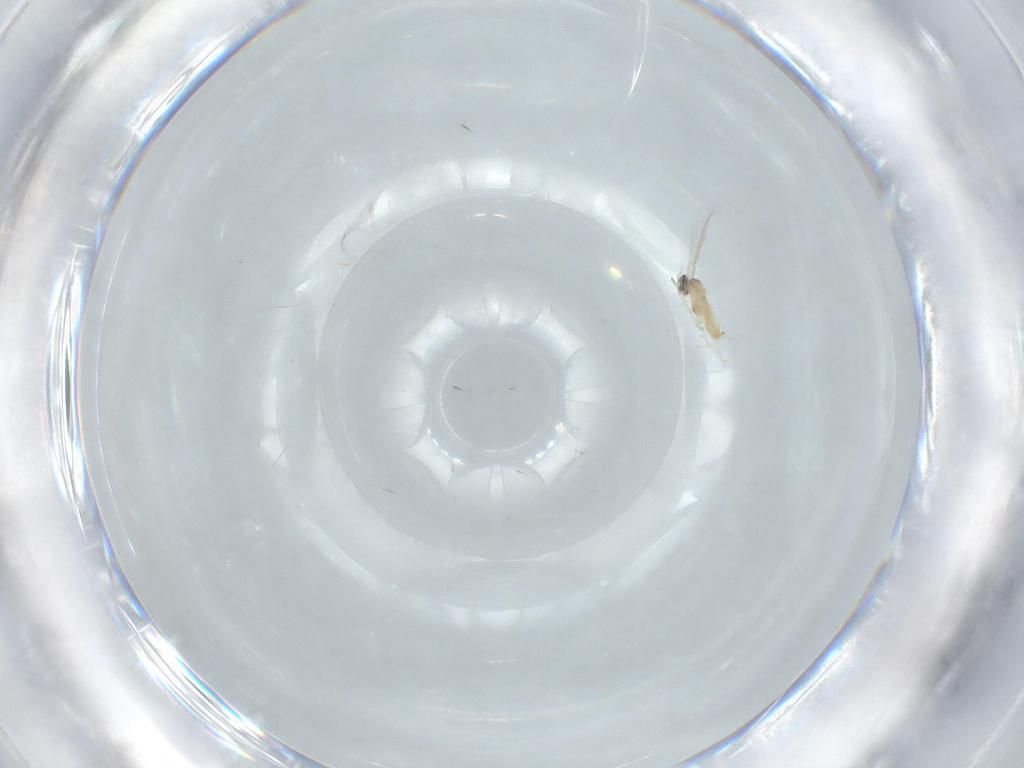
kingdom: Animalia
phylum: Arthropoda
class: Insecta
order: Diptera
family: Cecidomyiidae
